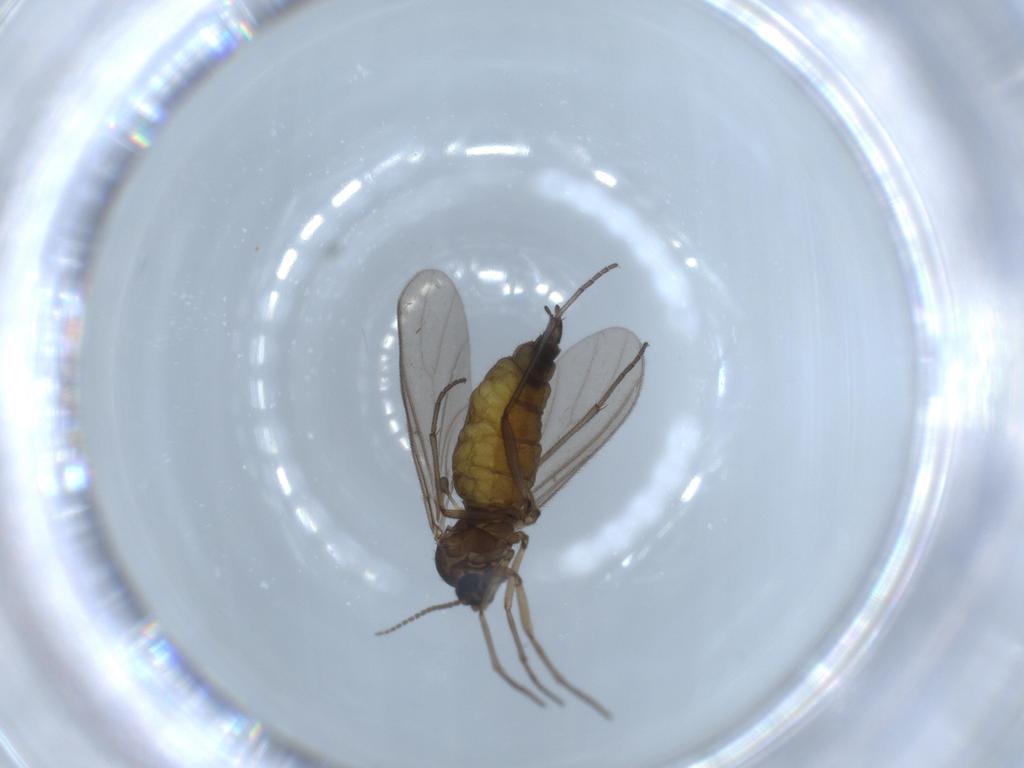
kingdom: Animalia
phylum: Arthropoda
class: Insecta
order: Diptera
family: Sciaridae
